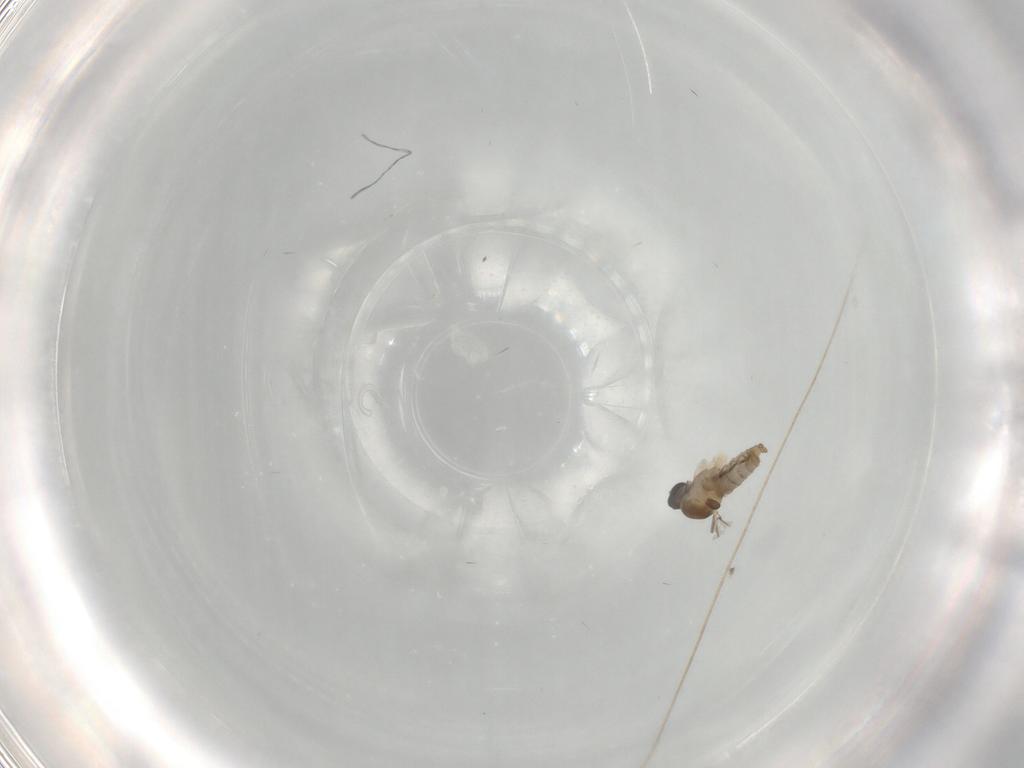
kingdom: Animalia
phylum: Arthropoda
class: Insecta
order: Diptera
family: Cecidomyiidae
